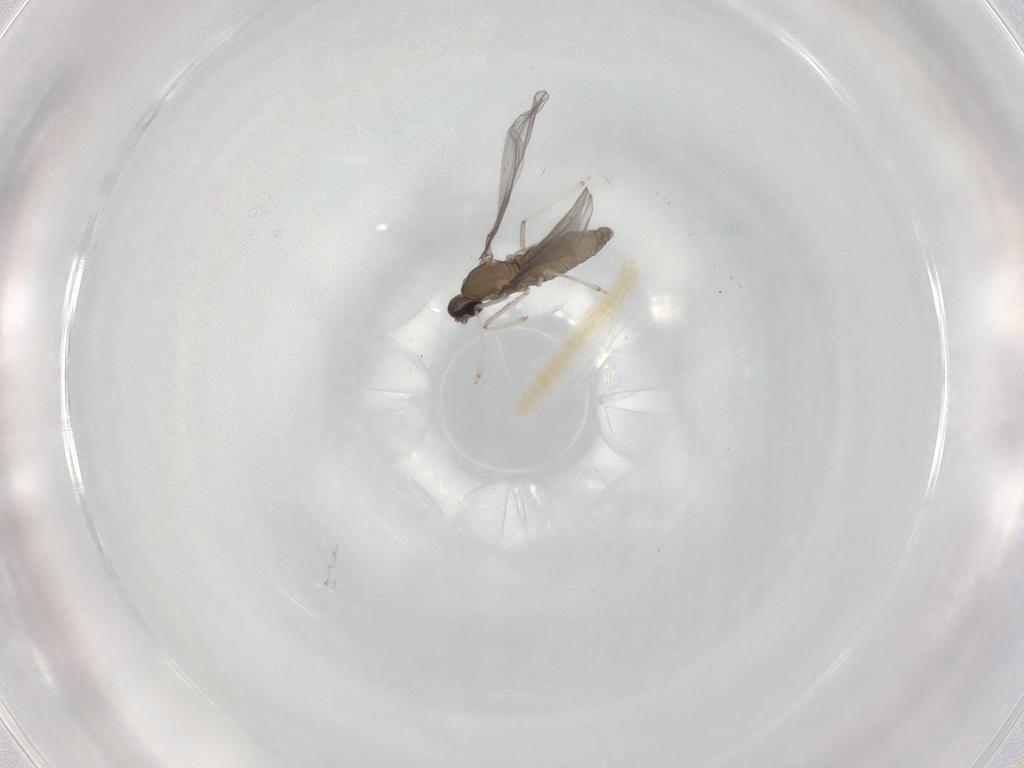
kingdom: Animalia
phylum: Arthropoda
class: Insecta
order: Diptera
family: Cecidomyiidae
